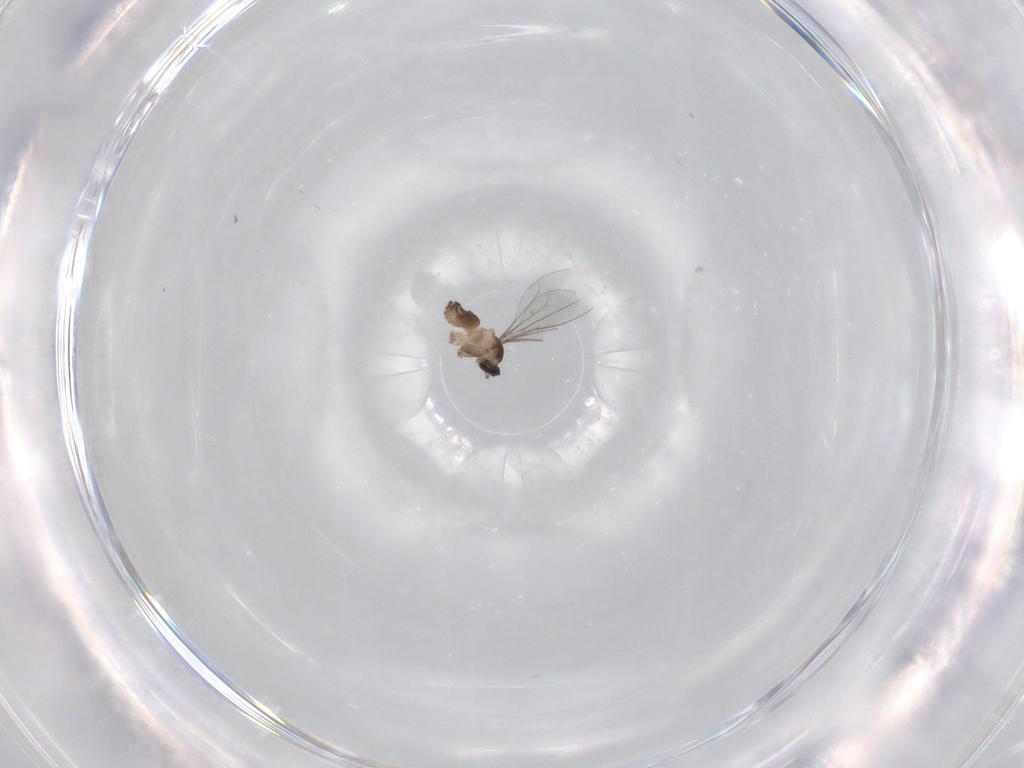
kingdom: Animalia
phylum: Arthropoda
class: Insecta
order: Diptera
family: Cecidomyiidae
